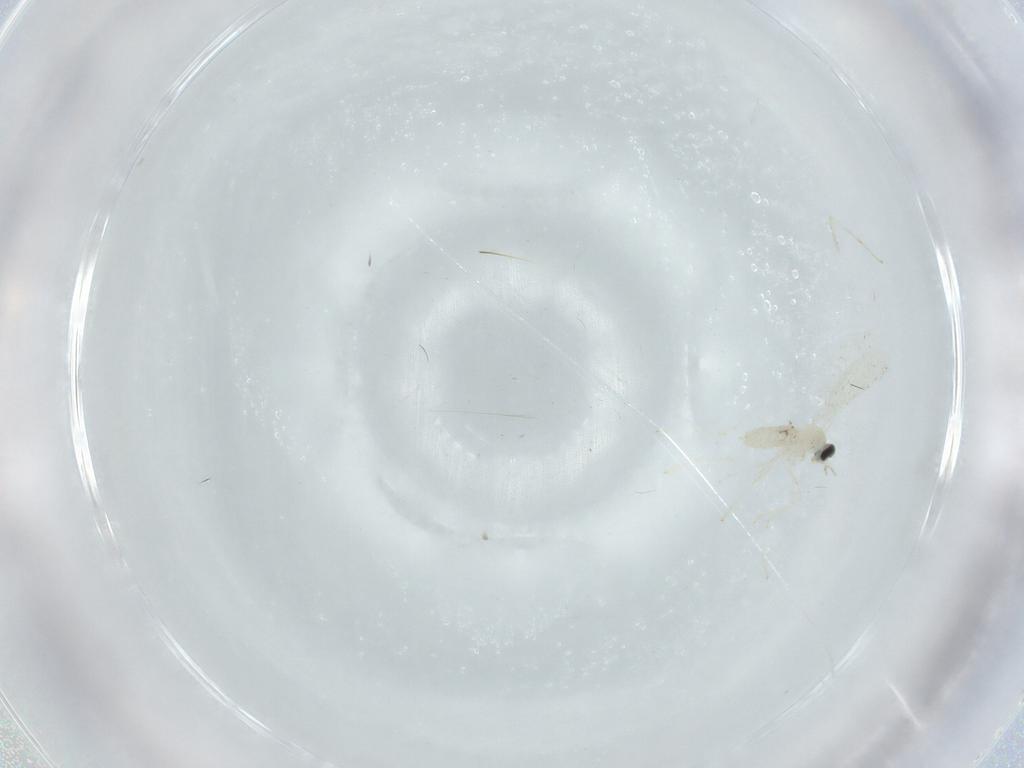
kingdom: Animalia
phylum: Arthropoda
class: Insecta
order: Diptera
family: Cecidomyiidae
